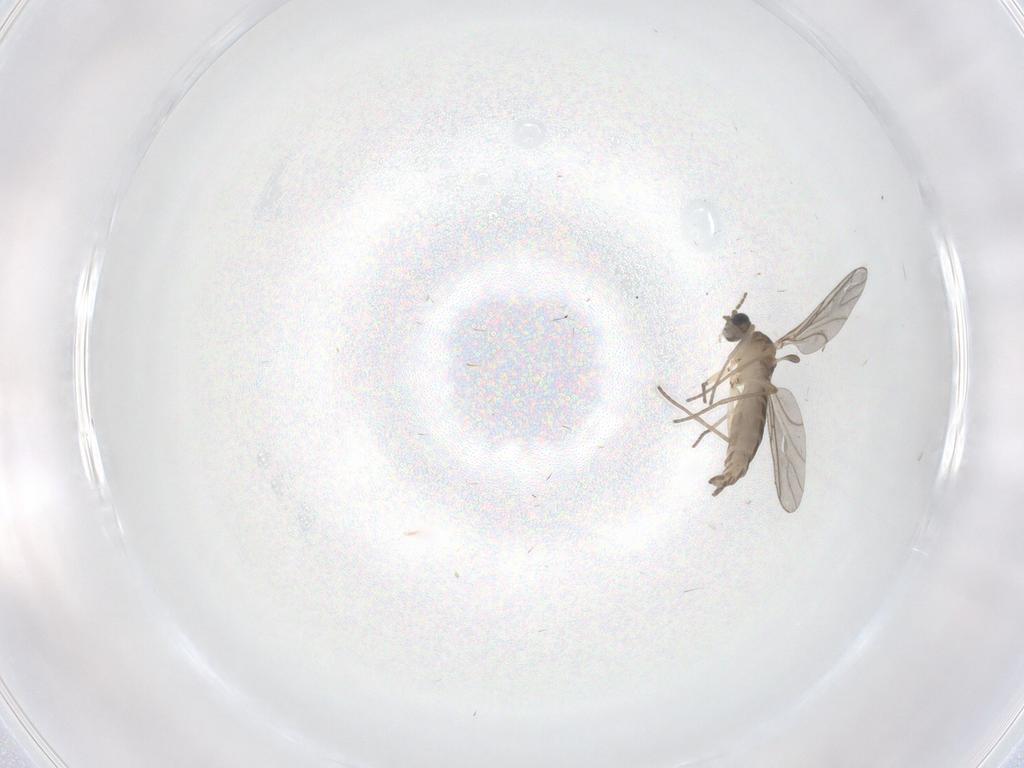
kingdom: Animalia
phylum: Arthropoda
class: Insecta
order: Diptera
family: Sciaridae
